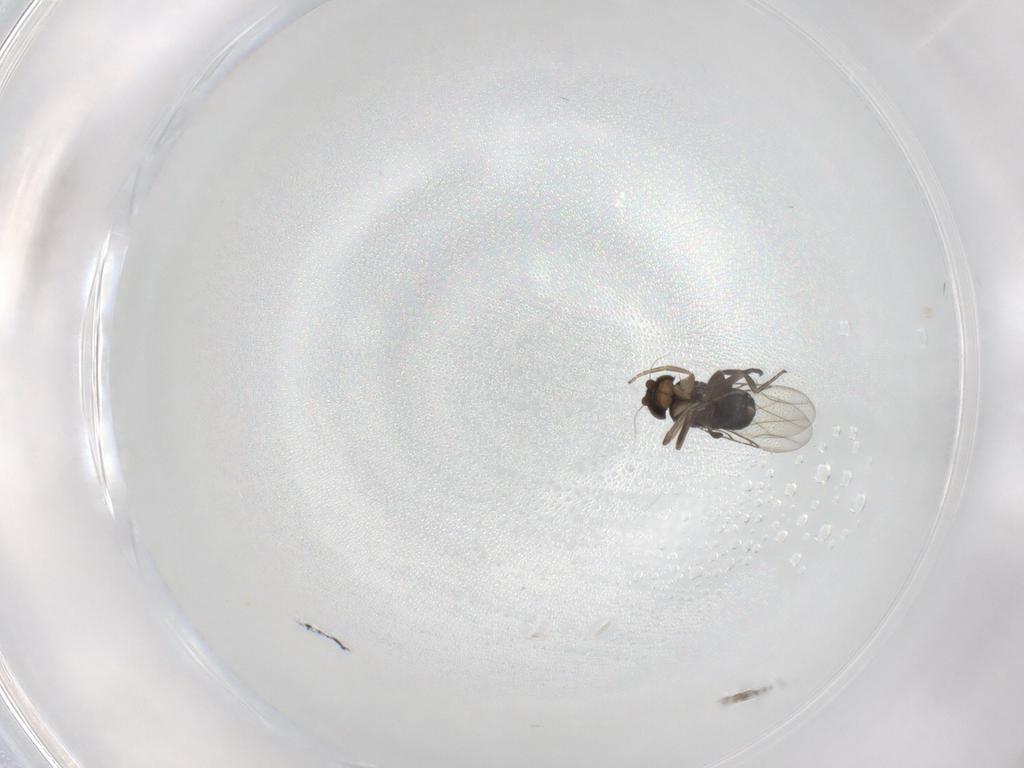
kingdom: Animalia
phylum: Arthropoda
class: Insecta
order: Diptera
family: Phoridae
